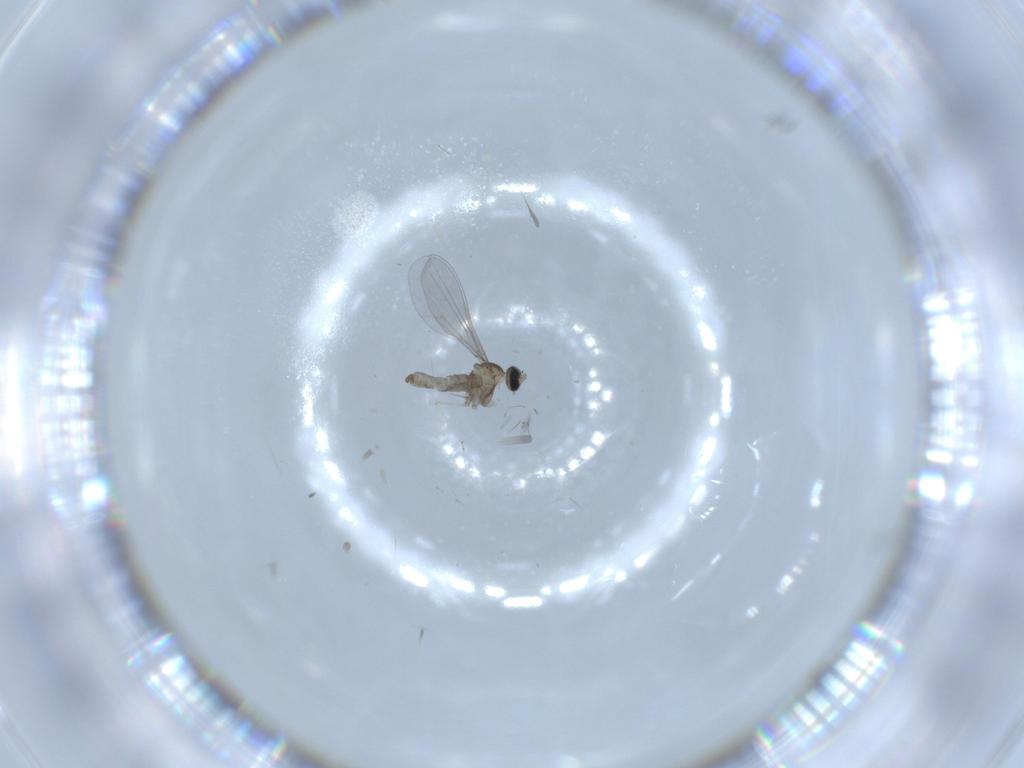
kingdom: Animalia
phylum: Arthropoda
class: Insecta
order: Diptera
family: Cecidomyiidae
